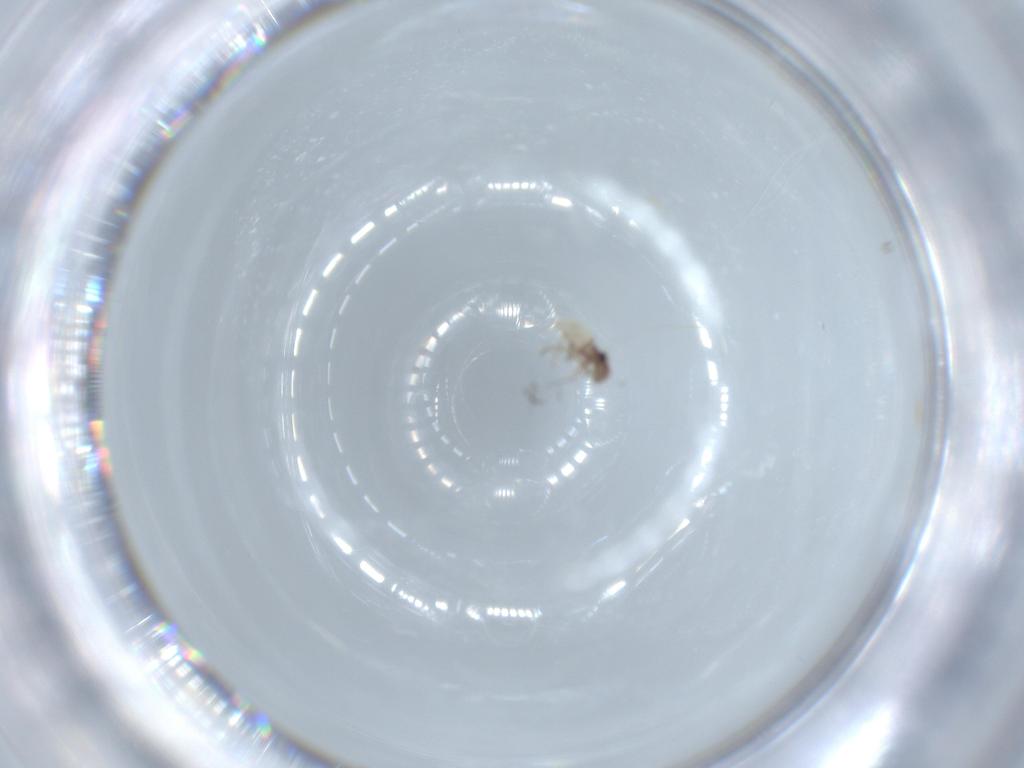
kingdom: Animalia
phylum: Arthropoda
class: Insecta
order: Psocodea
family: Lepidopsocidae
